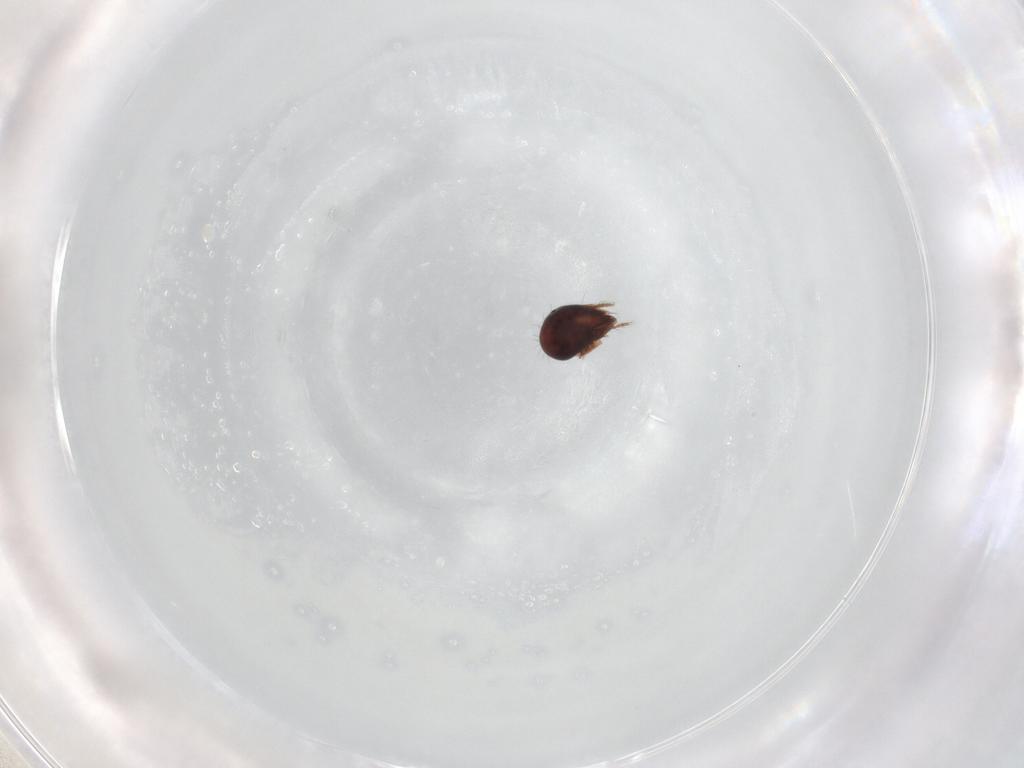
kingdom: Animalia
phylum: Arthropoda
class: Arachnida
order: Sarcoptiformes
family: Humerobatidae
